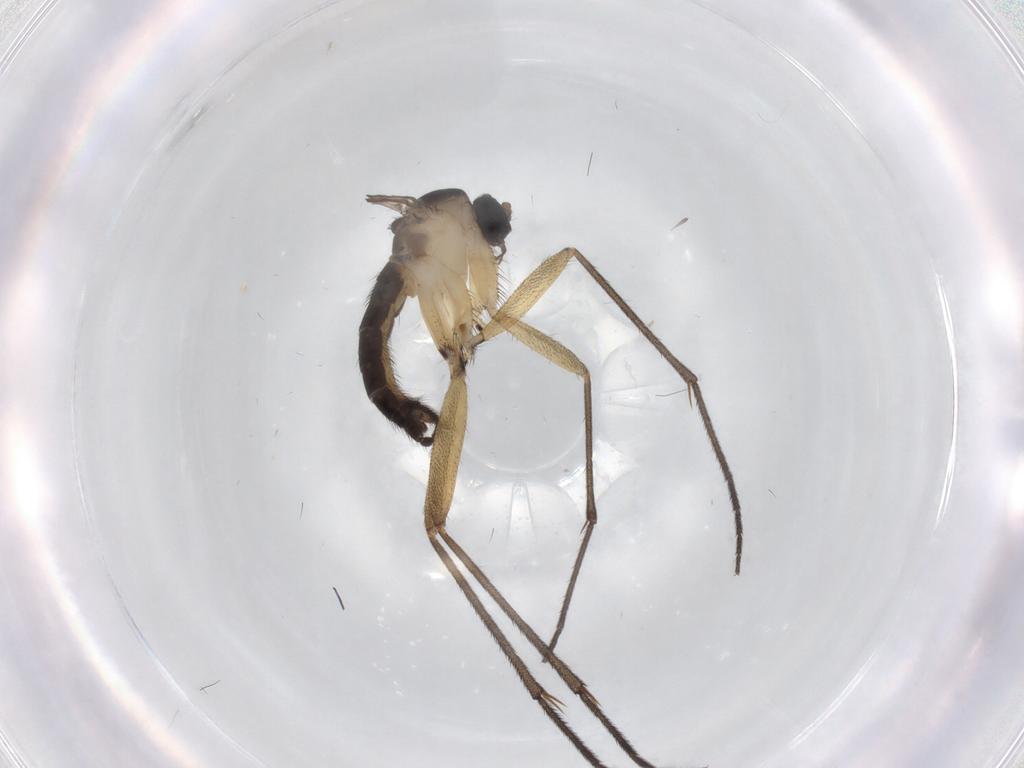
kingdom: Animalia
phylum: Arthropoda
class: Insecta
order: Diptera
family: Sciaridae
